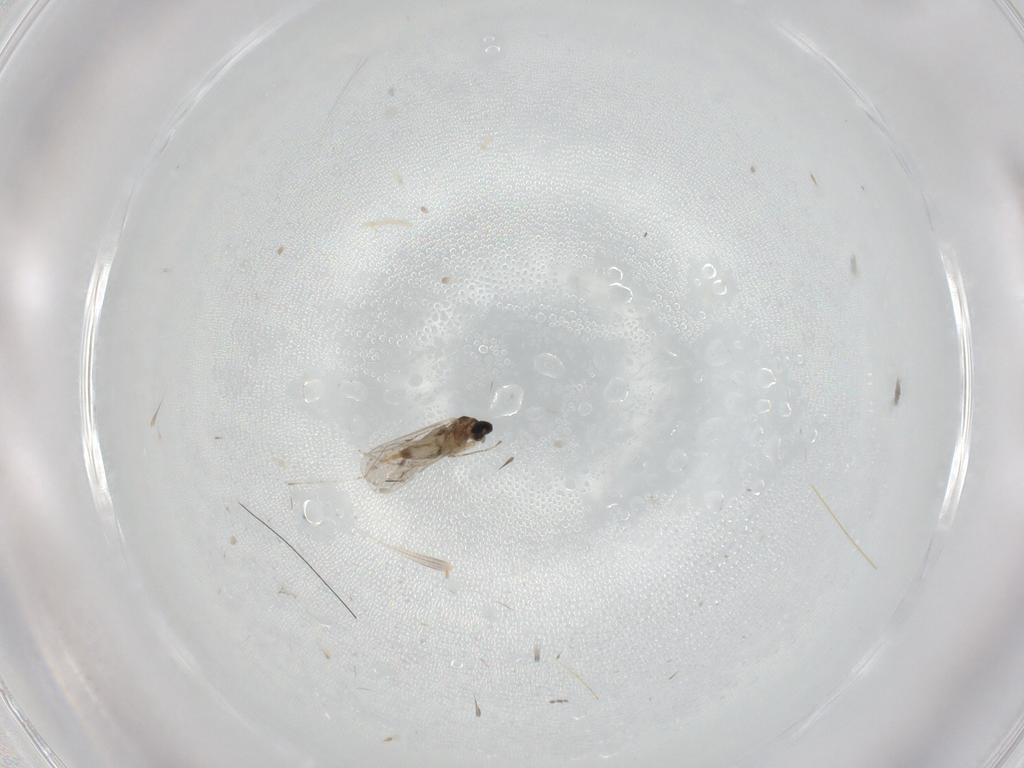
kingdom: Animalia
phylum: Arthropoda
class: Insecta
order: Diptera
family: Cecidomyiidae
